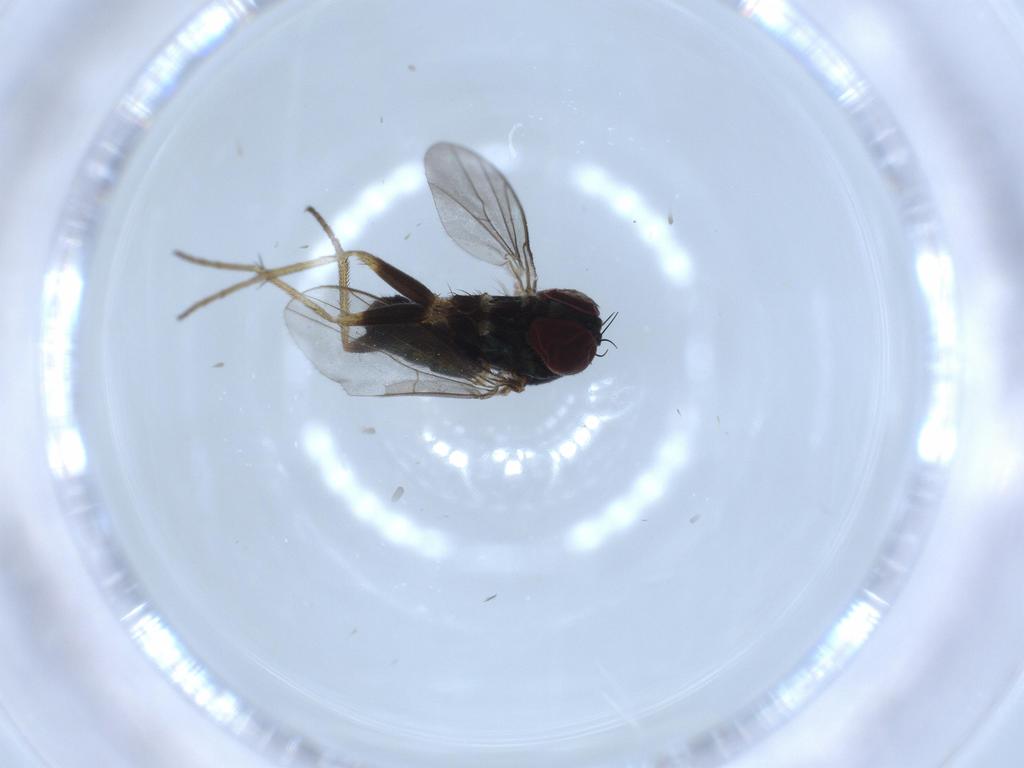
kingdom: Animalia
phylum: Arthropoda
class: Insecta
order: Diptera
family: Dolichopodidae
